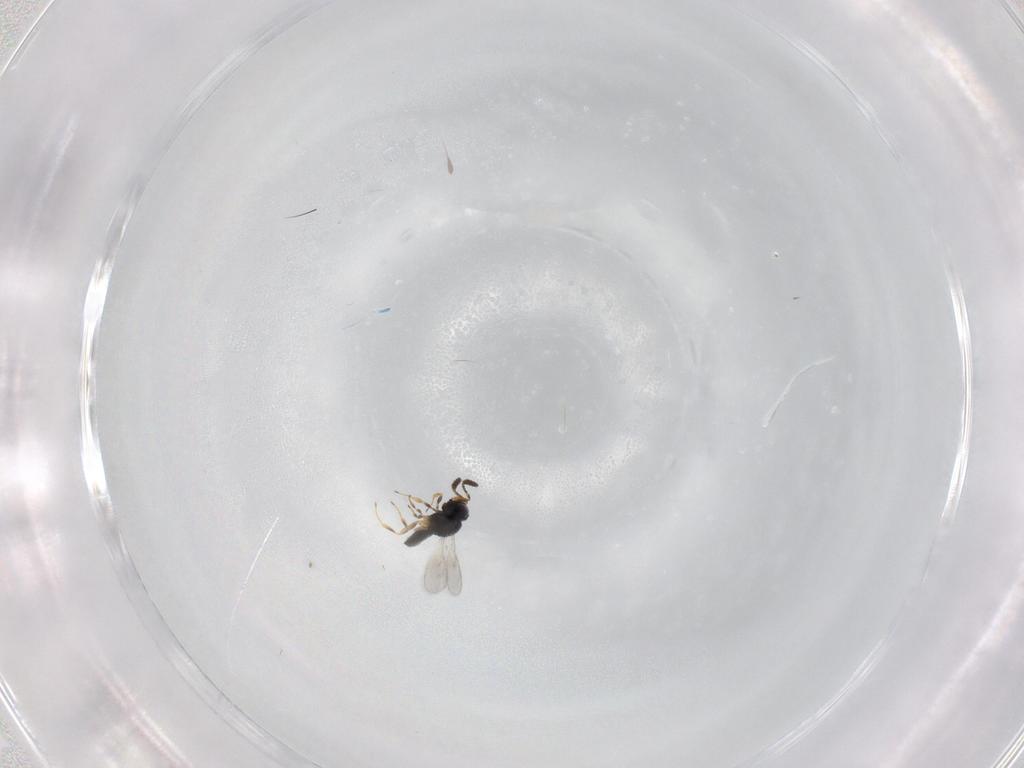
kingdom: Animalia
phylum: Arthropoda
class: Insecta
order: Hymenoptera
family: Scelionidae
